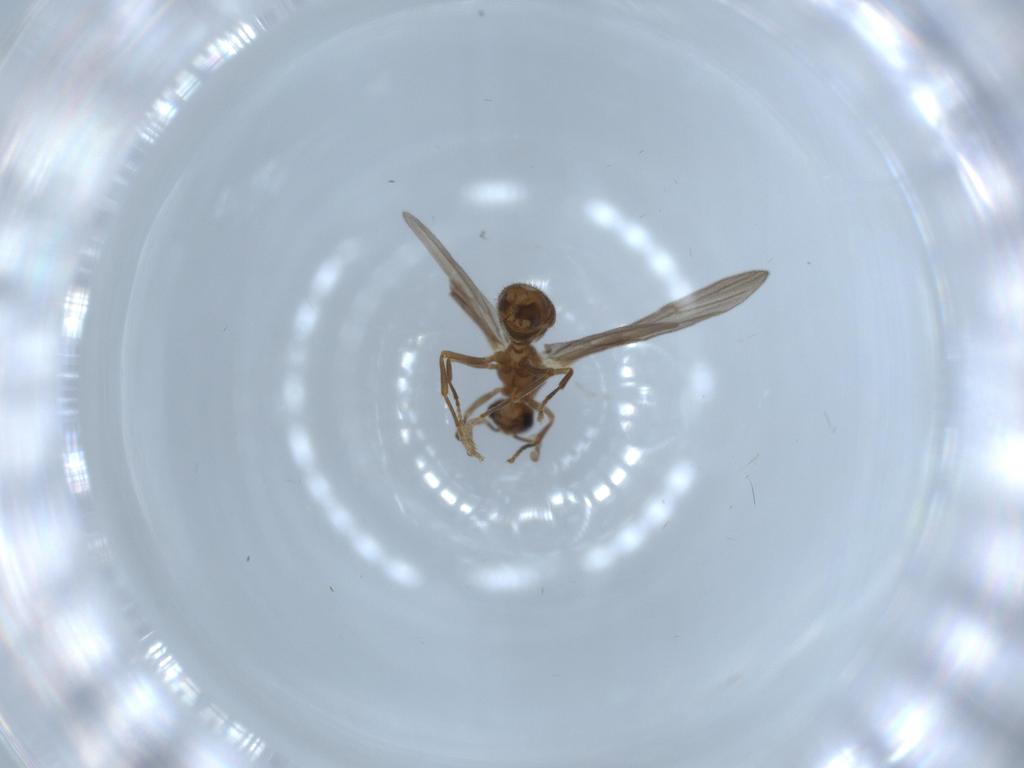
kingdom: Animalia
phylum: Arthropoda
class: Insecta
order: Hymenoptera
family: Formicidae
